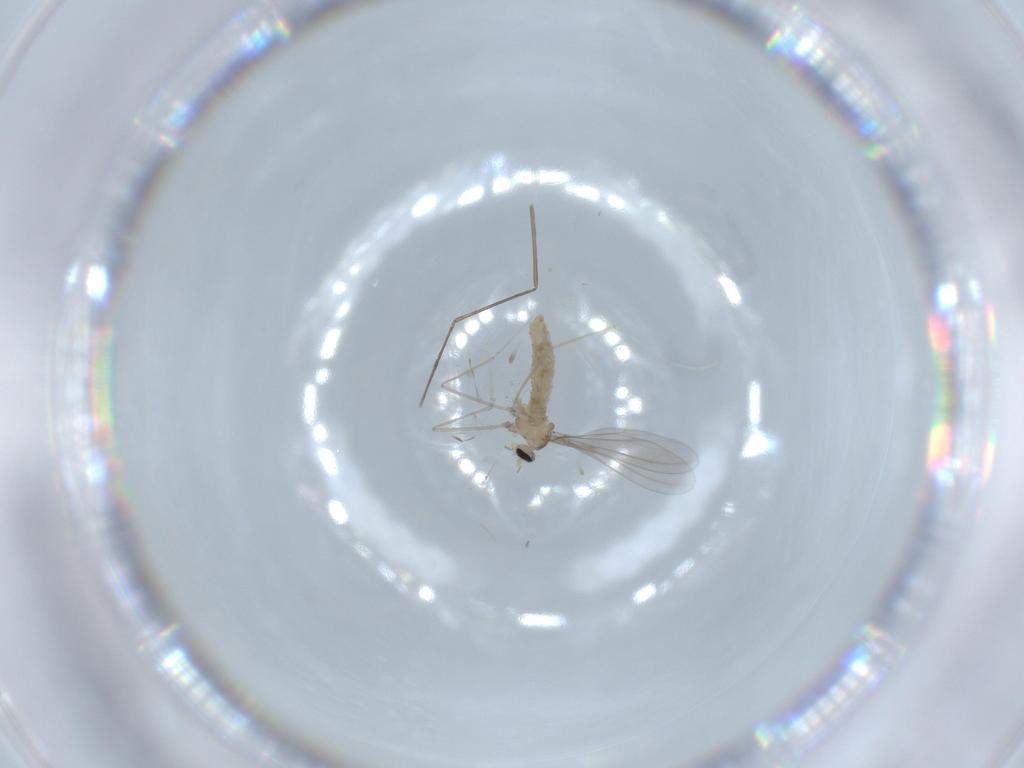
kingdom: Animalia
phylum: Arthropoda
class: Insecta
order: Diptera
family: Cecidomyiidae
